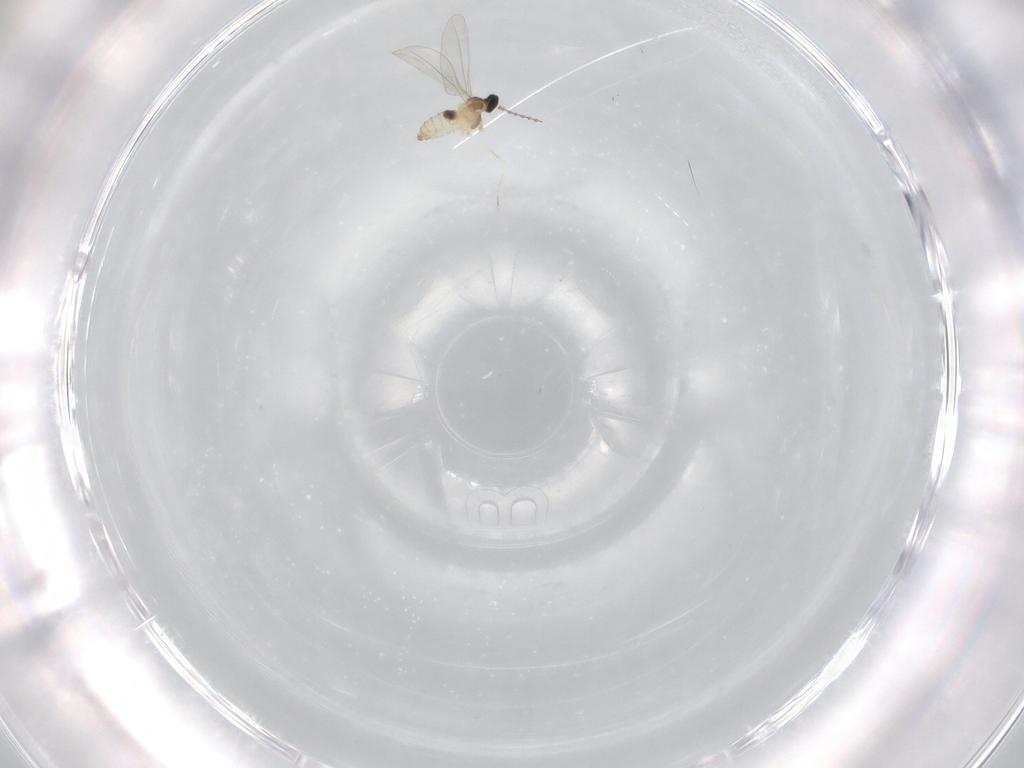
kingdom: Animalia
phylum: Arthropoda
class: Insecta
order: Diptera
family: Cecidomyiidae
